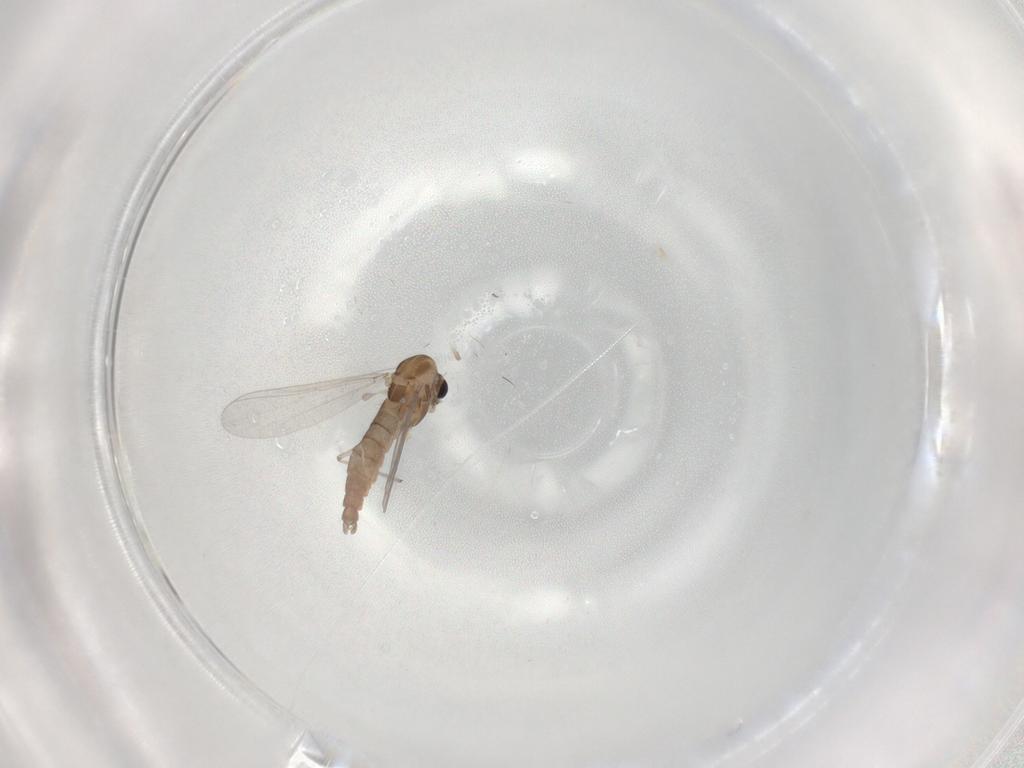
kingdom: Animalia
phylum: Arthropoda
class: Insecta
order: Diptera
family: Chironomidae
